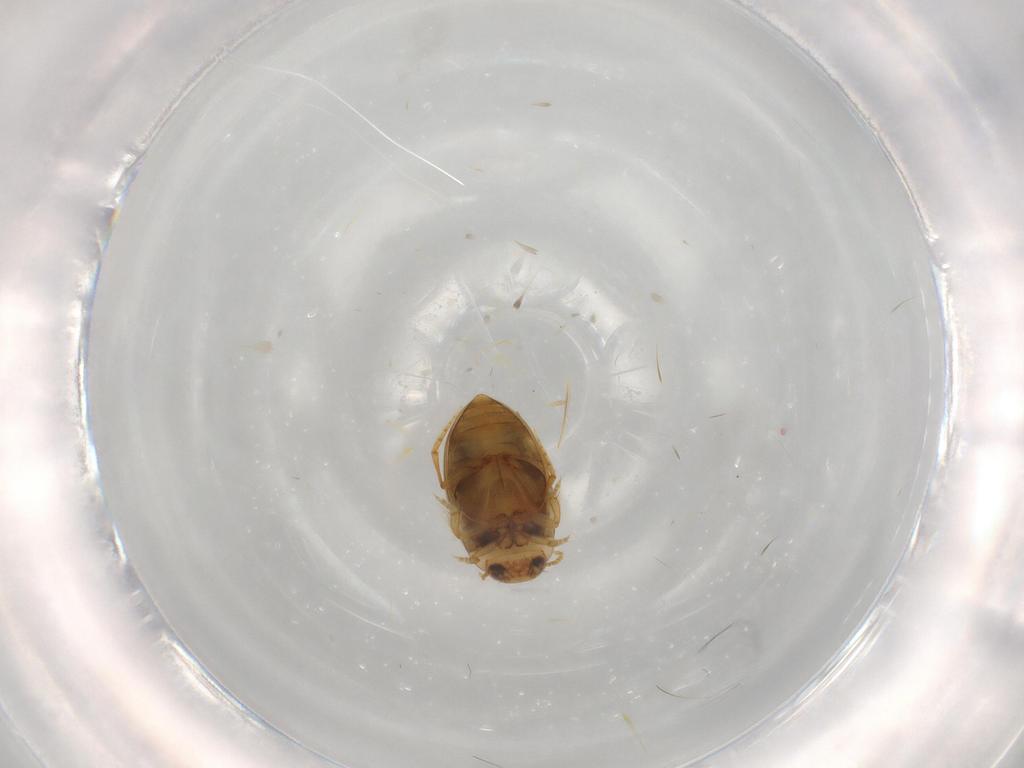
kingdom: Animalia
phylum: Arthropoda
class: Insecta
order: Coleoptera
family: Dytiscidae
